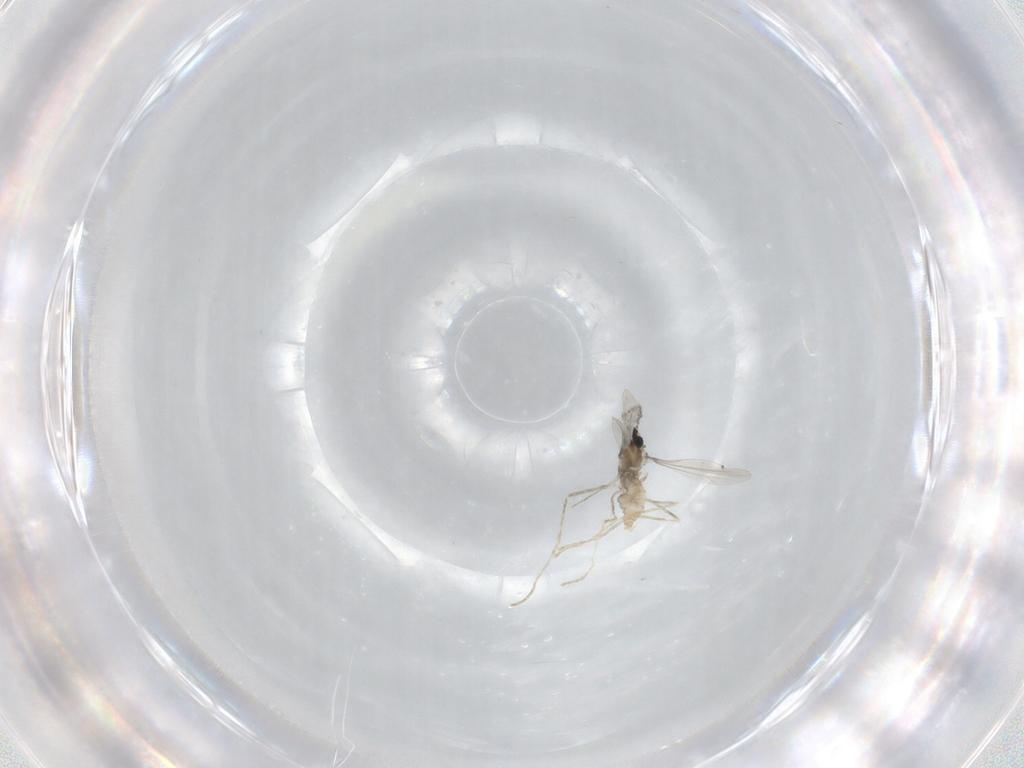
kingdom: Animalia
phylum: Arthropoda
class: Insecta
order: Diptera
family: Cecidomyiidae
